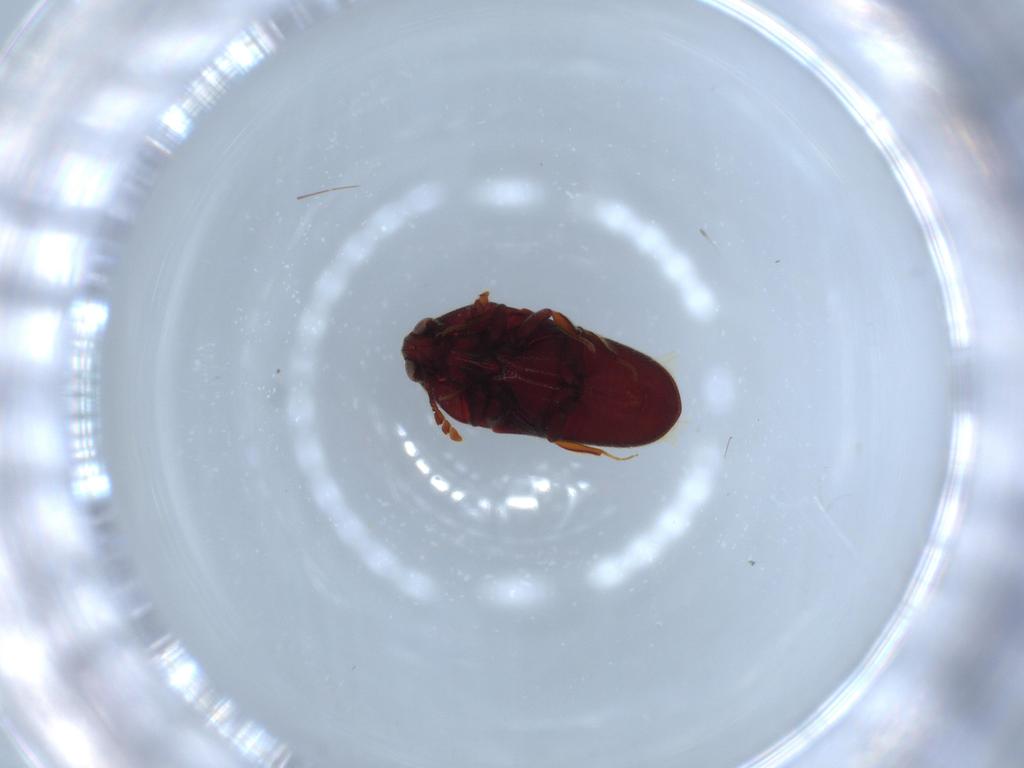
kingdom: Animalia
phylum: Arthropoda
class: Insecta
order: Coleoptera
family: Throscidae
